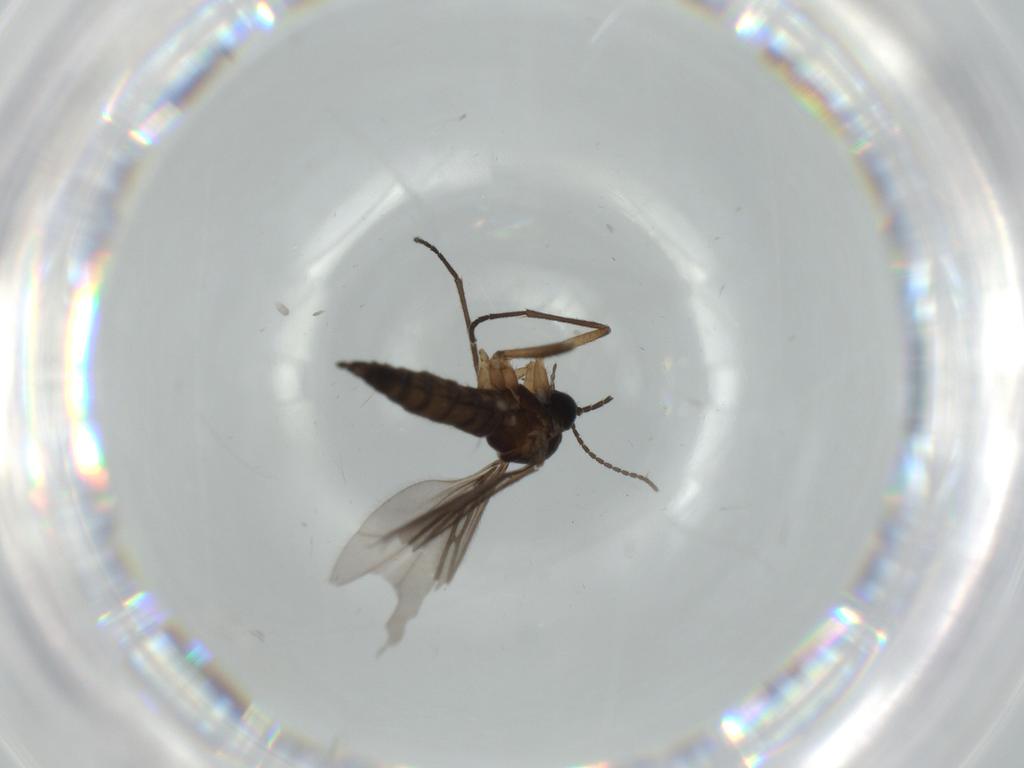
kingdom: Animalia
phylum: Arthropoda
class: Insecta
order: Diptera
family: Sciaridae
